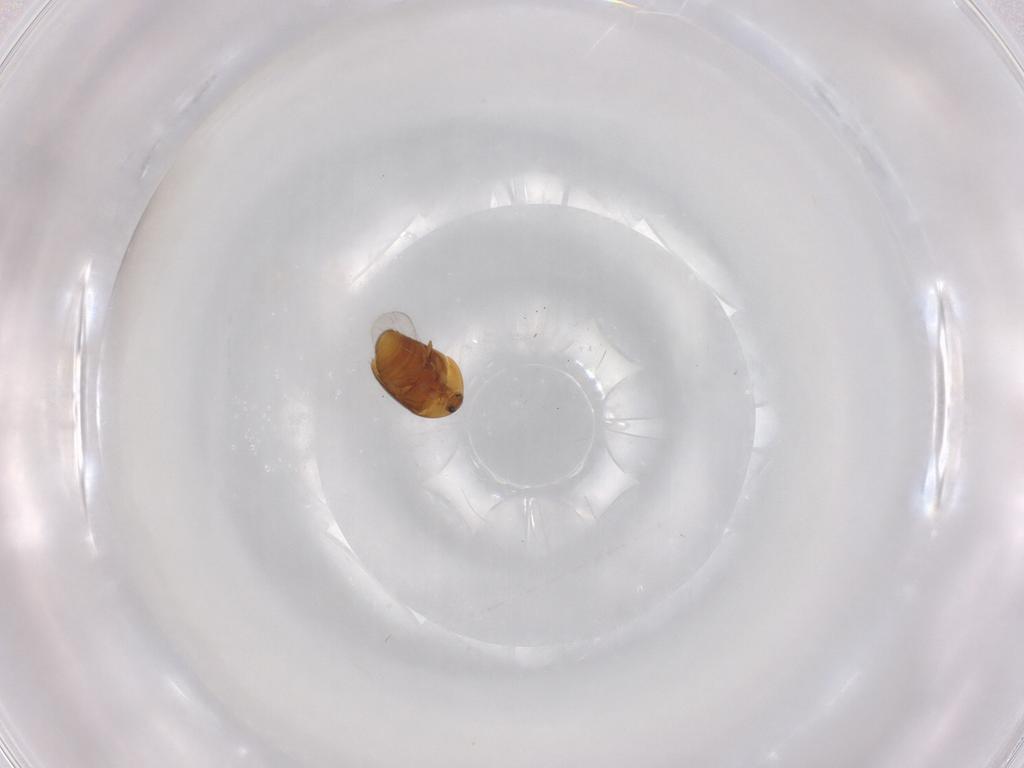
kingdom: Animalia
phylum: Arthropoda
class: Insecta
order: Coleoptera
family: Corylophidae
